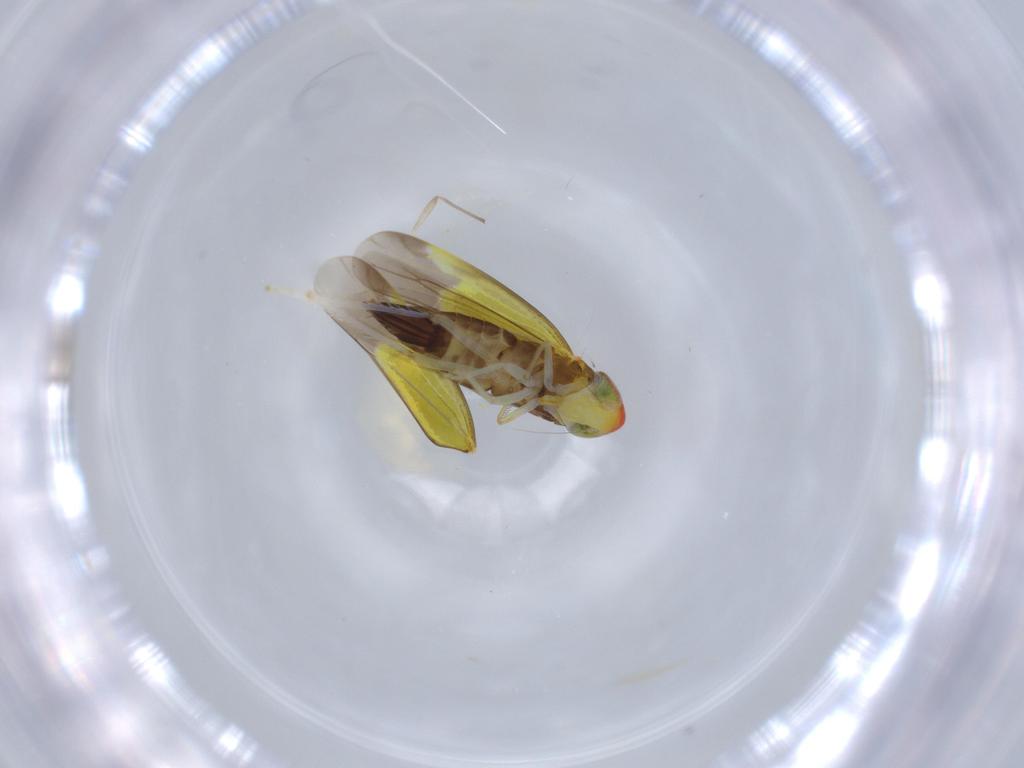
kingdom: Animalia
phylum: Arthropoda
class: Insecta
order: Hemiptera
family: Cicadellidae
